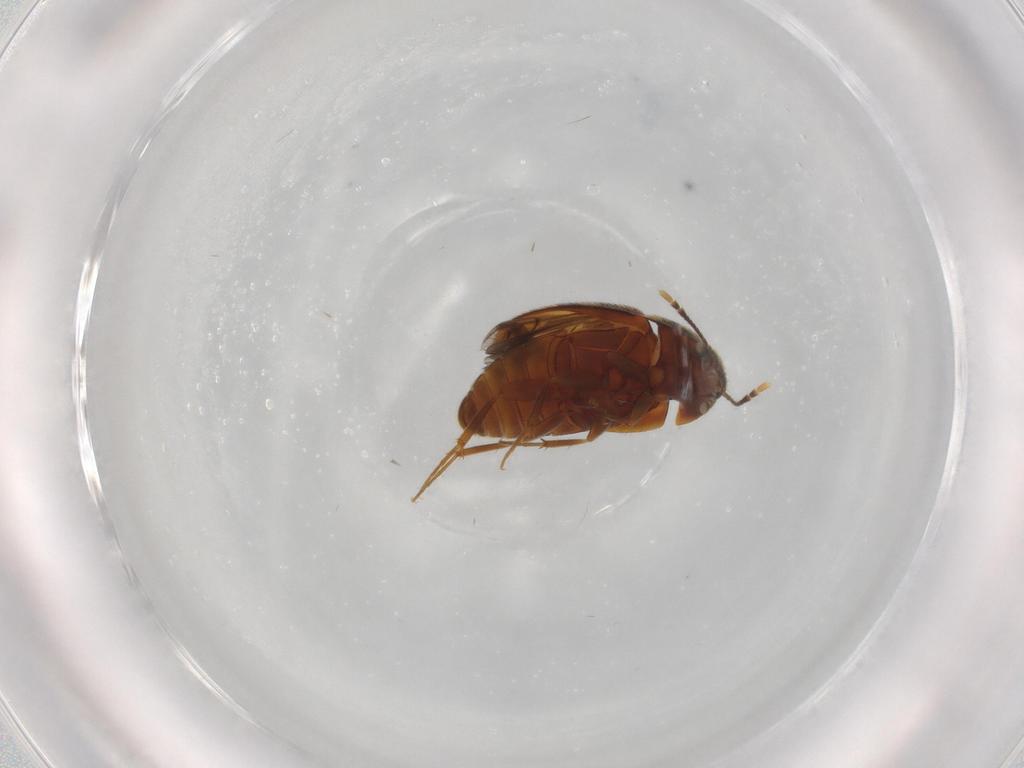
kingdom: Animalia
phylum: Arthropoda
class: Insecta
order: Coleoptera
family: Mycetophagidae
